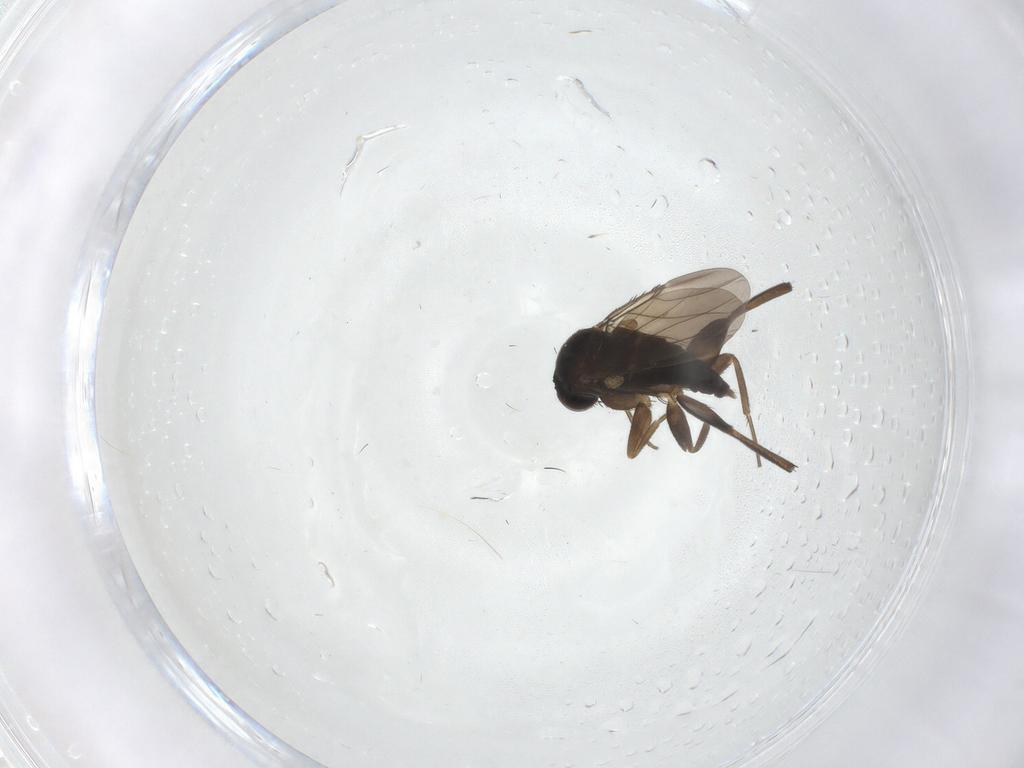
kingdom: Animalia
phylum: Arthropoda
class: Insecta
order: Diptera
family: Phoridae
